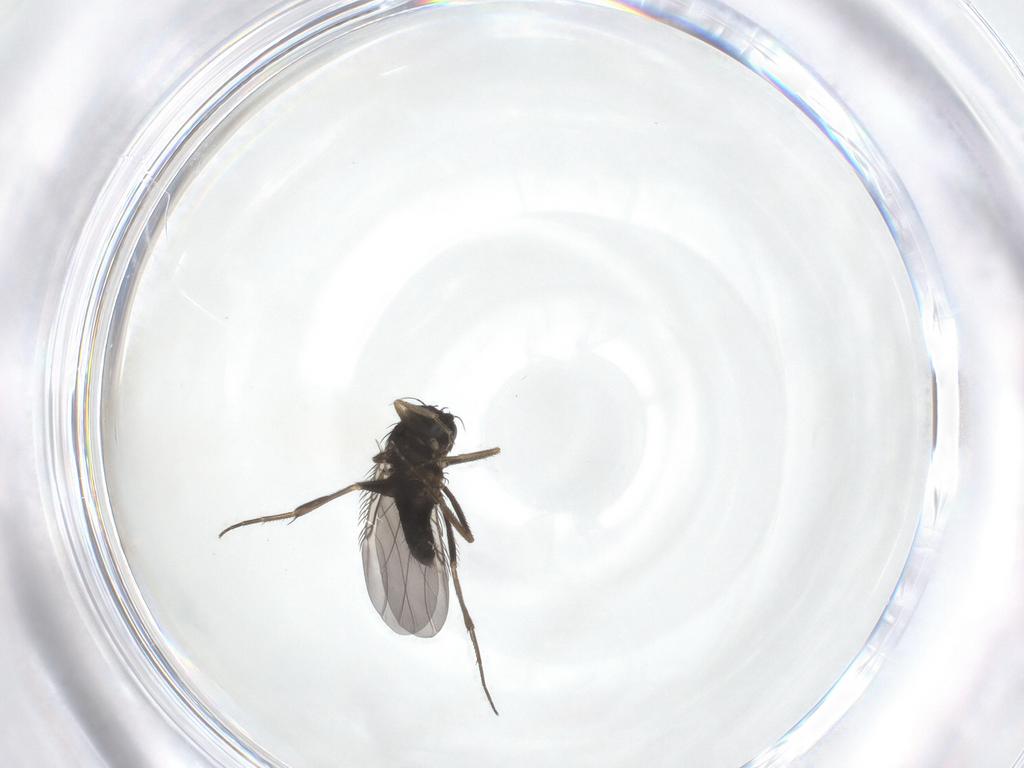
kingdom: Animalia
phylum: Arthropoda
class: Insecta
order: Diptera
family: Phoridae
